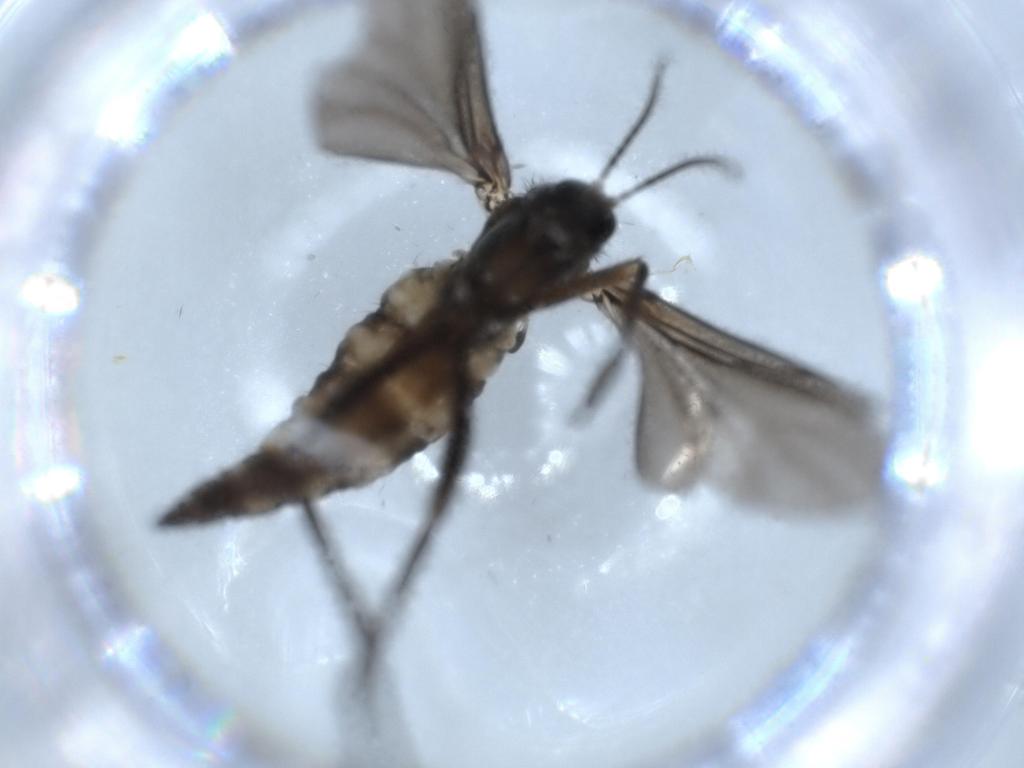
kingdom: Animalia
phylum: Arthropoda
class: Insecta
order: Diptera
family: Sciaridae
